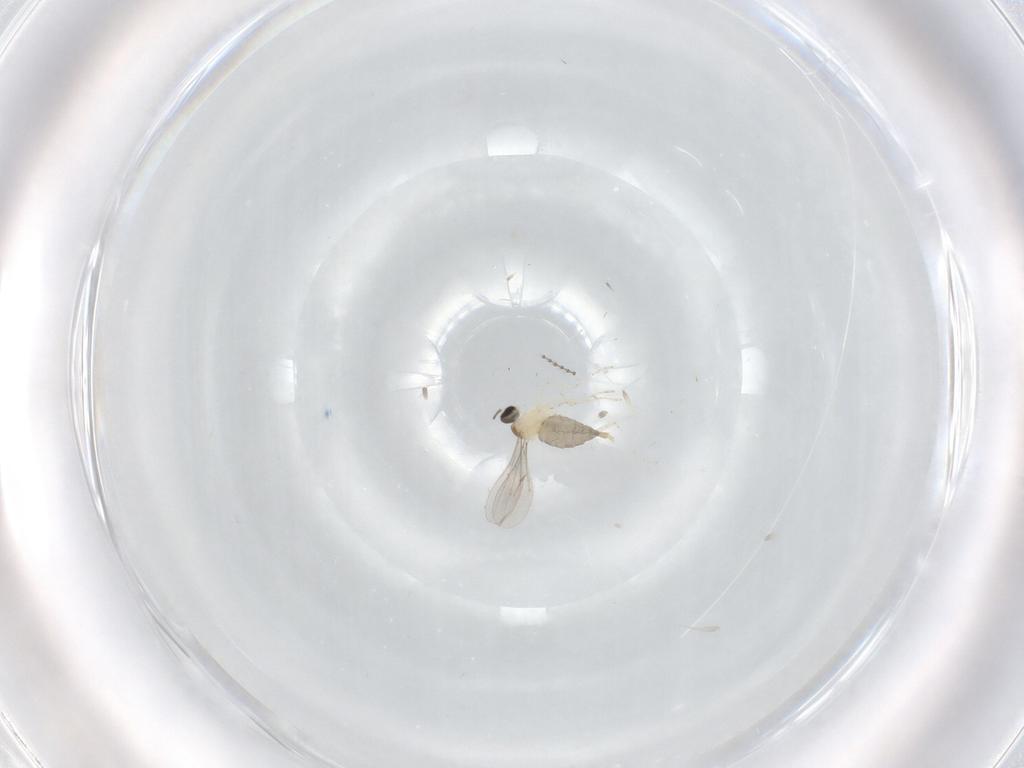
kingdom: Animalia
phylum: Arthropoda
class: Insecta
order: Diptera
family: Cecidomyiidae
